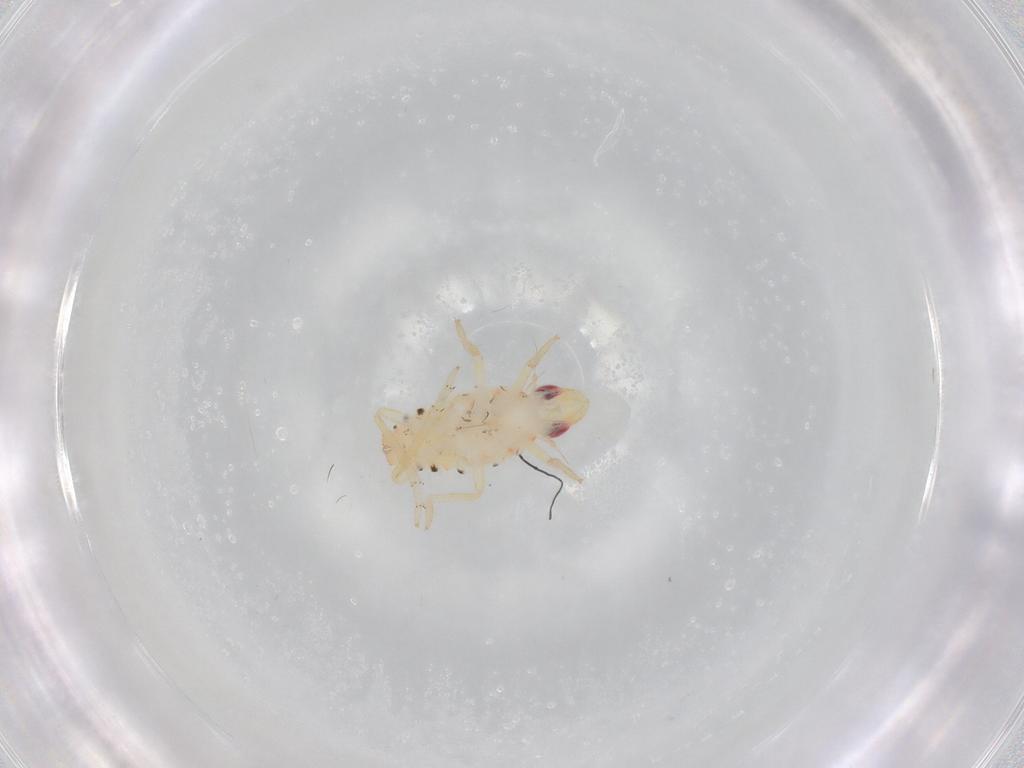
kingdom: Animalia
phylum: Arthropoda
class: Insecta
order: Hemiptera
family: Tropiduchidae
